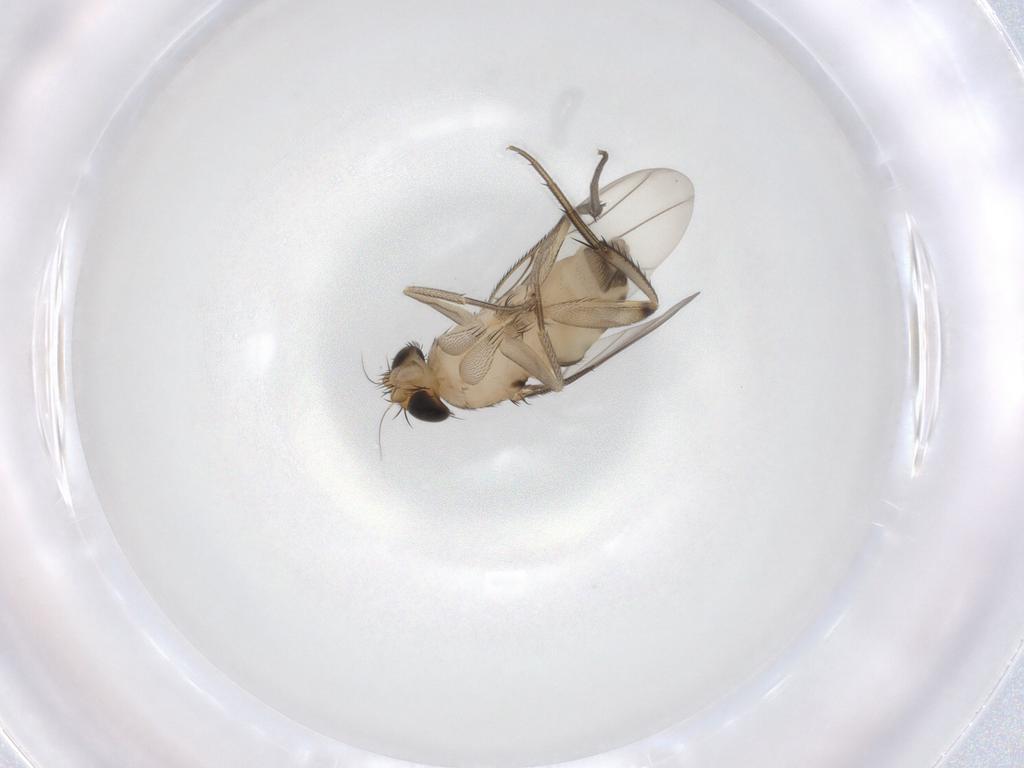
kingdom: Animalia
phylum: Arthropoda
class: Insecta
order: Diptera
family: Phoridae
